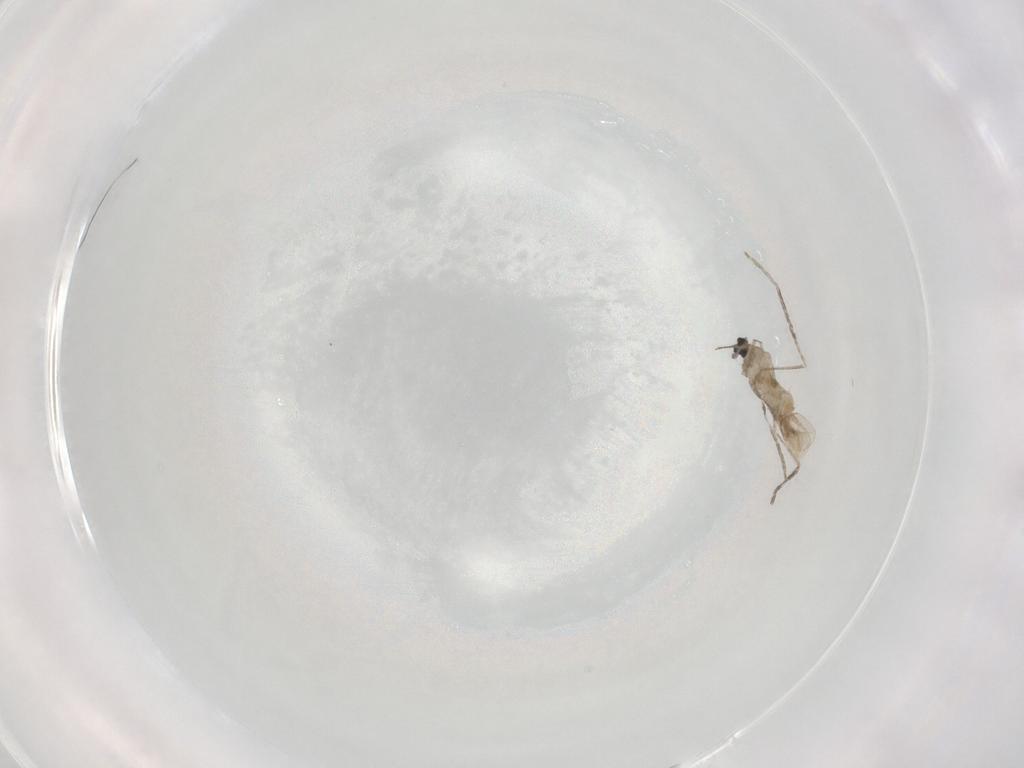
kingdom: Animalia
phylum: Arthropoda
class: Insecta
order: Diptera
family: Cecidomyiidae
